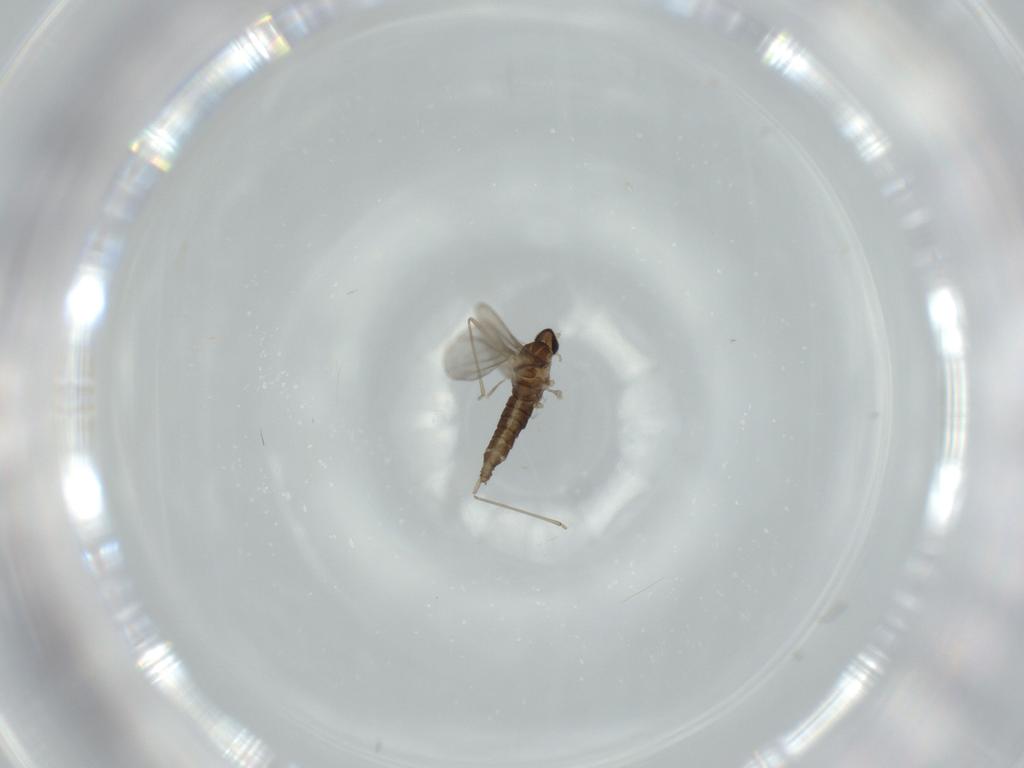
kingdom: Animalia
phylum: Arthropoda
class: Insecta
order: Diptera
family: Cecidomyiidae
